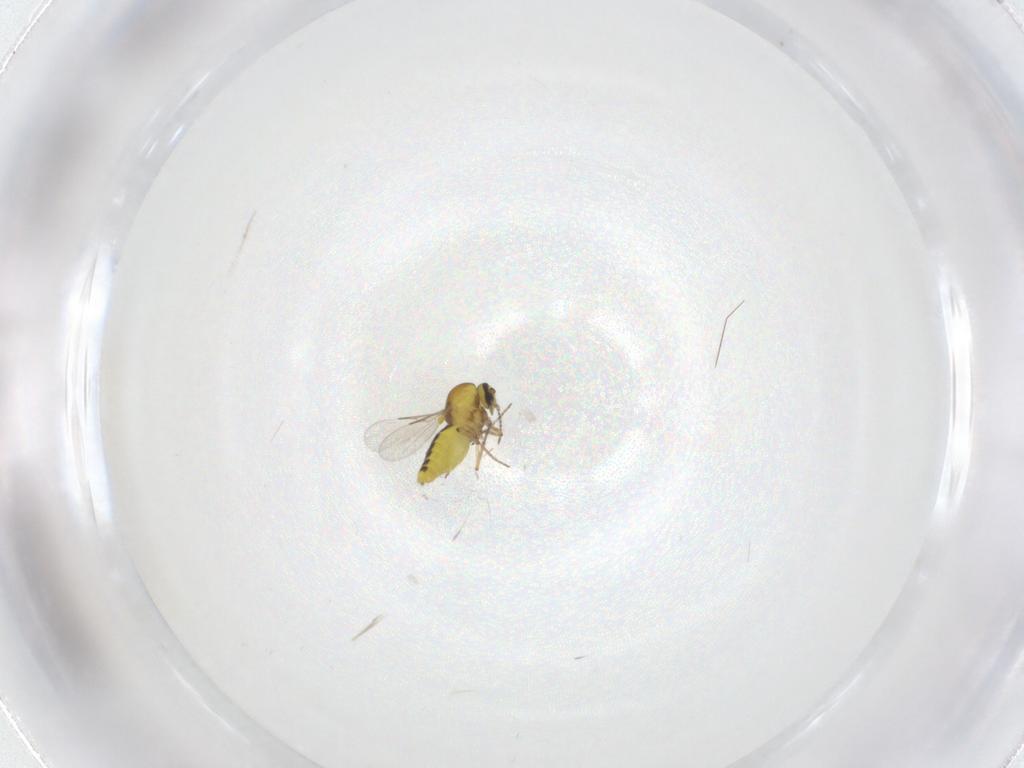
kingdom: Animalia
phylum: Arthropoda
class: Insecta
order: Diptera
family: Ceratopogonidae
